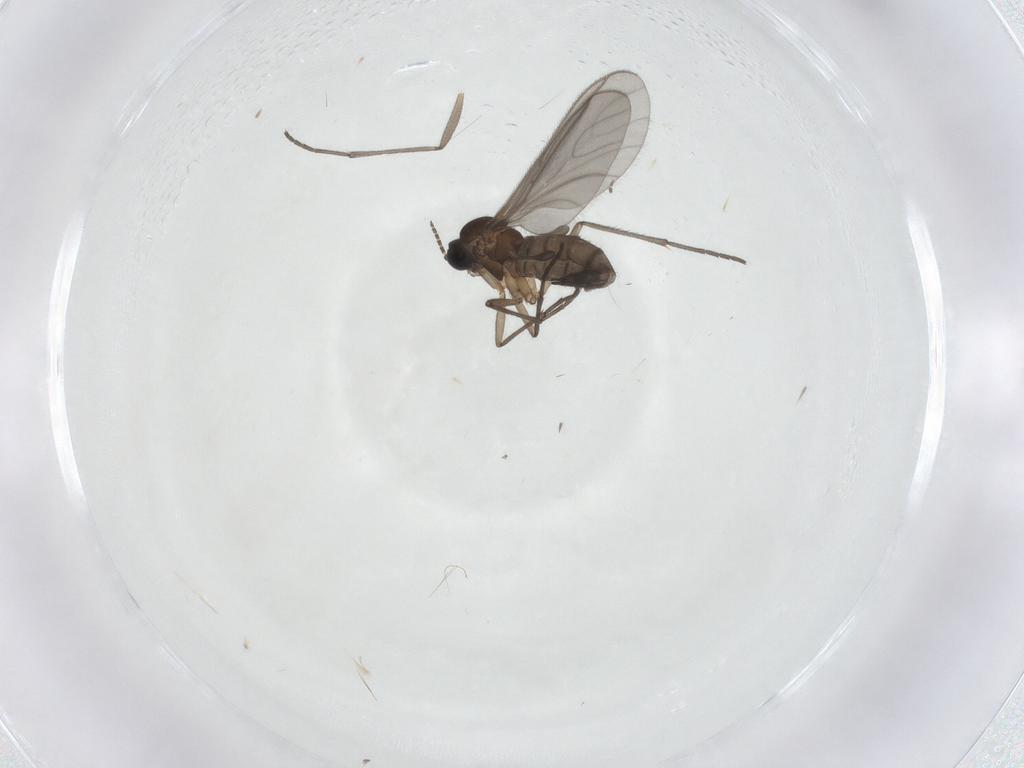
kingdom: Animalia
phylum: Arthropoda
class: Insecta
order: Diptera
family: Sciaridae
